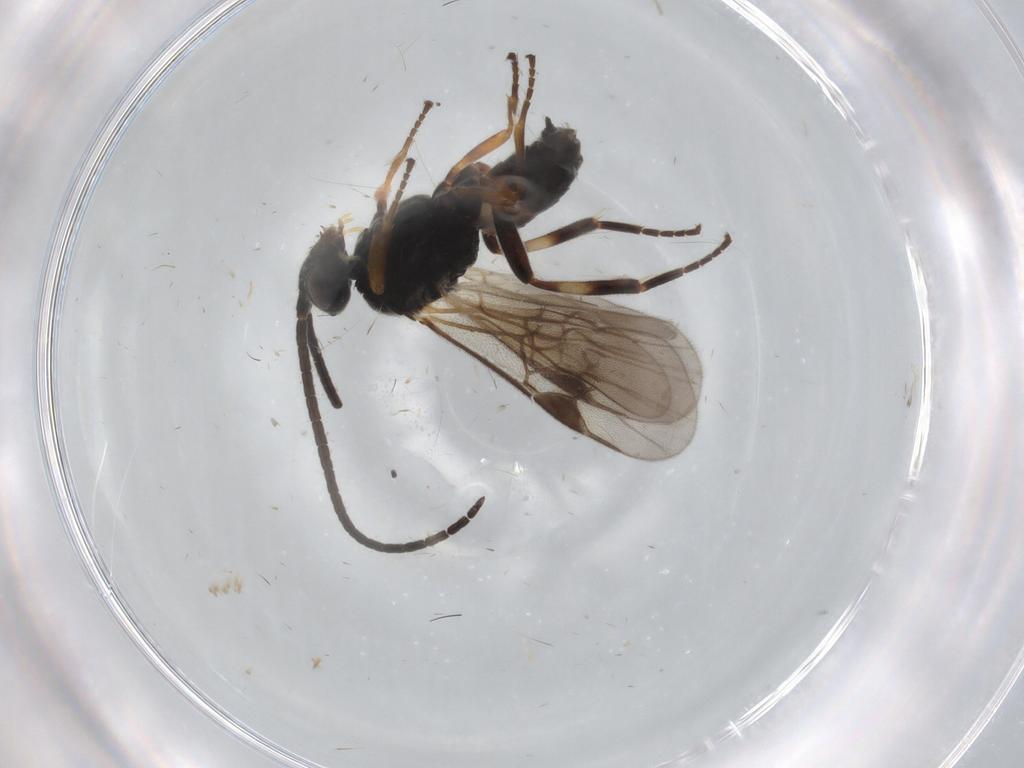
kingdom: Animalia
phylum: Arthropoda
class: Insecta
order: Hymenoptera
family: Braconidae
